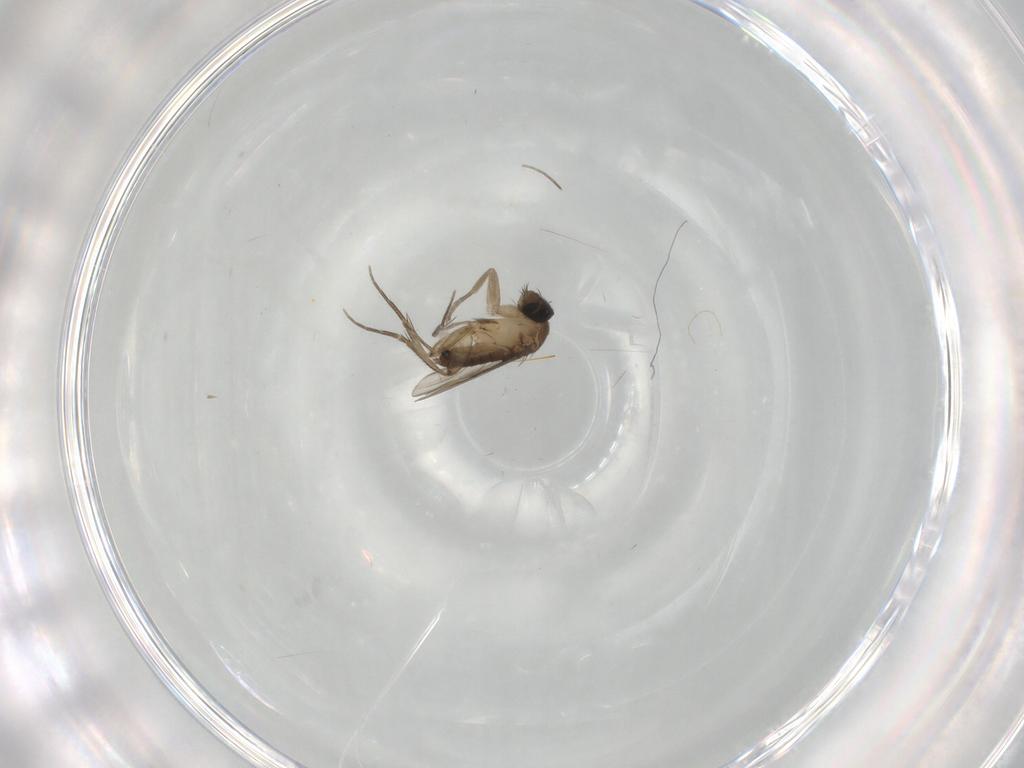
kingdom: Animalia
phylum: Arthropoda
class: Insecta
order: Diptera
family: Phoridae
